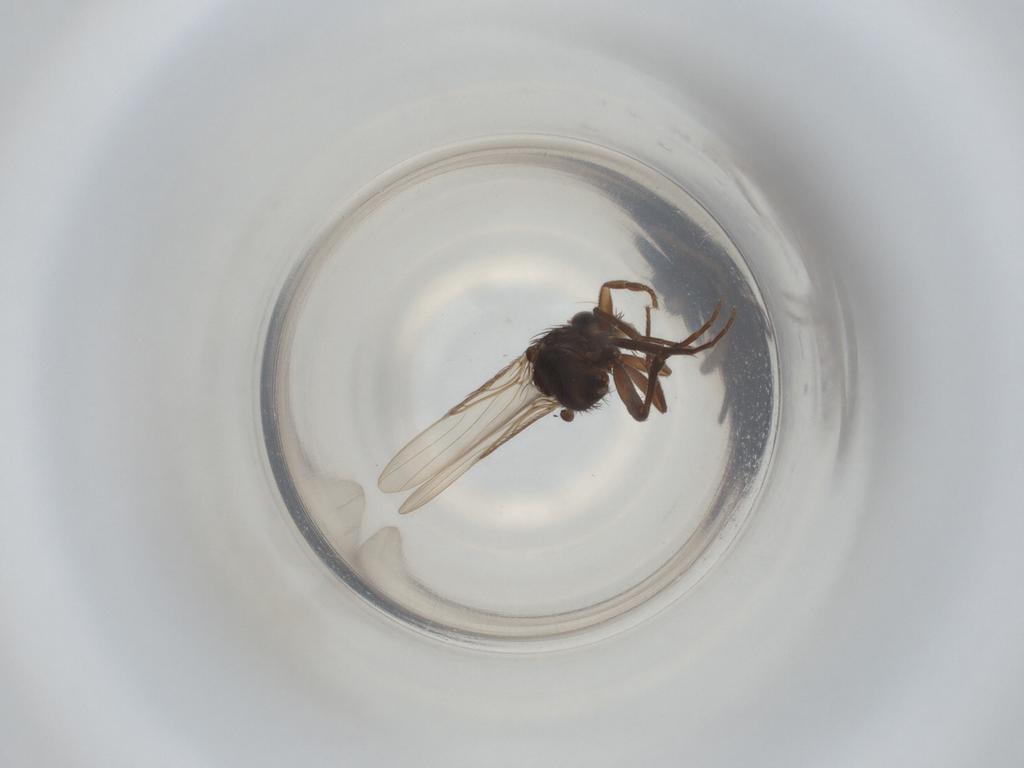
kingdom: Animalia
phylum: Arthropoda
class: Insecta
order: Diptera
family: Phoridae
